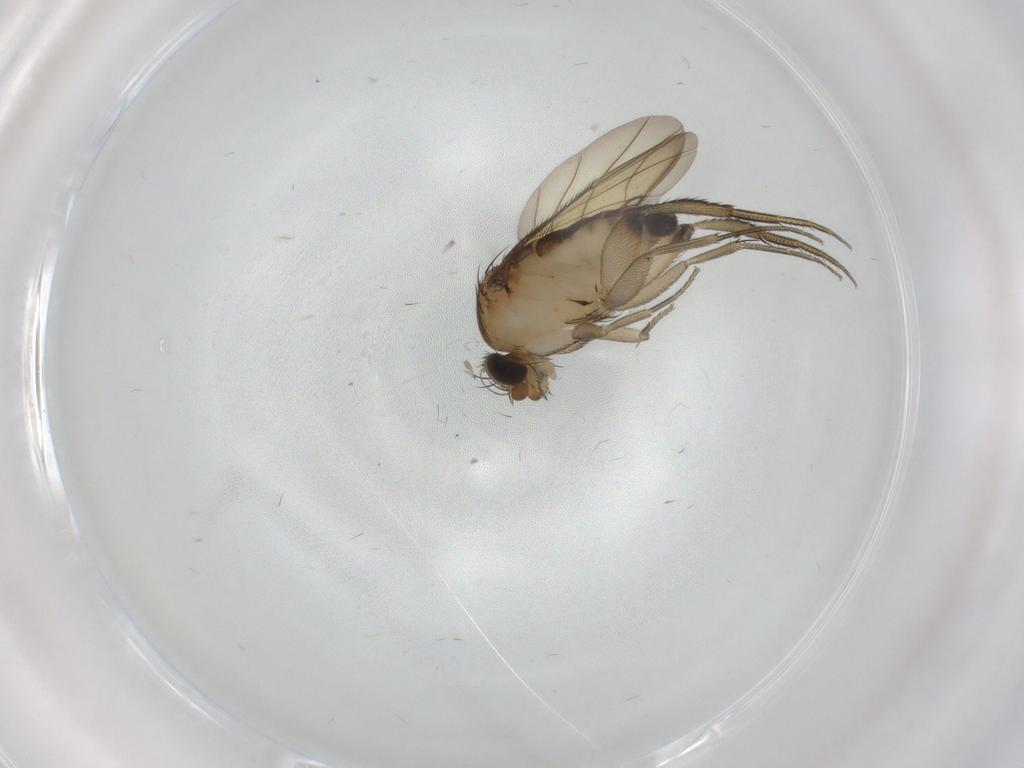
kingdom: Animalia
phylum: Arthropoda
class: Insecta
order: Diptera
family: Phoridae
